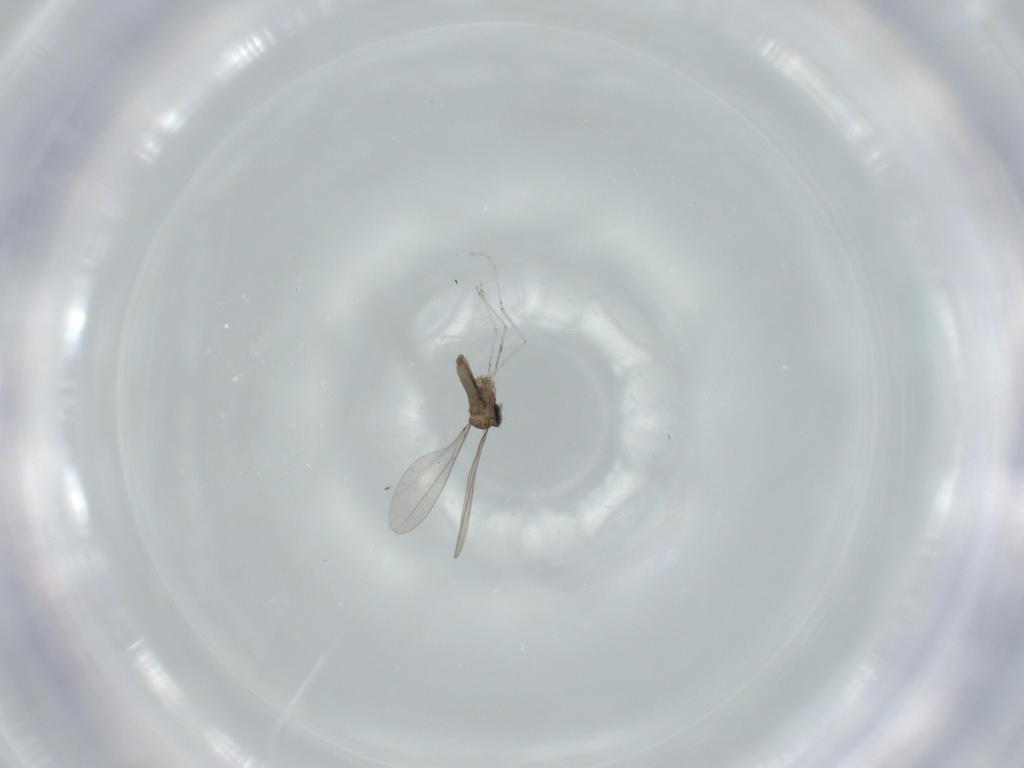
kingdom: Animalia
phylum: Arthropoda
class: Insecta
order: Diptera
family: Cecidomyiidae
